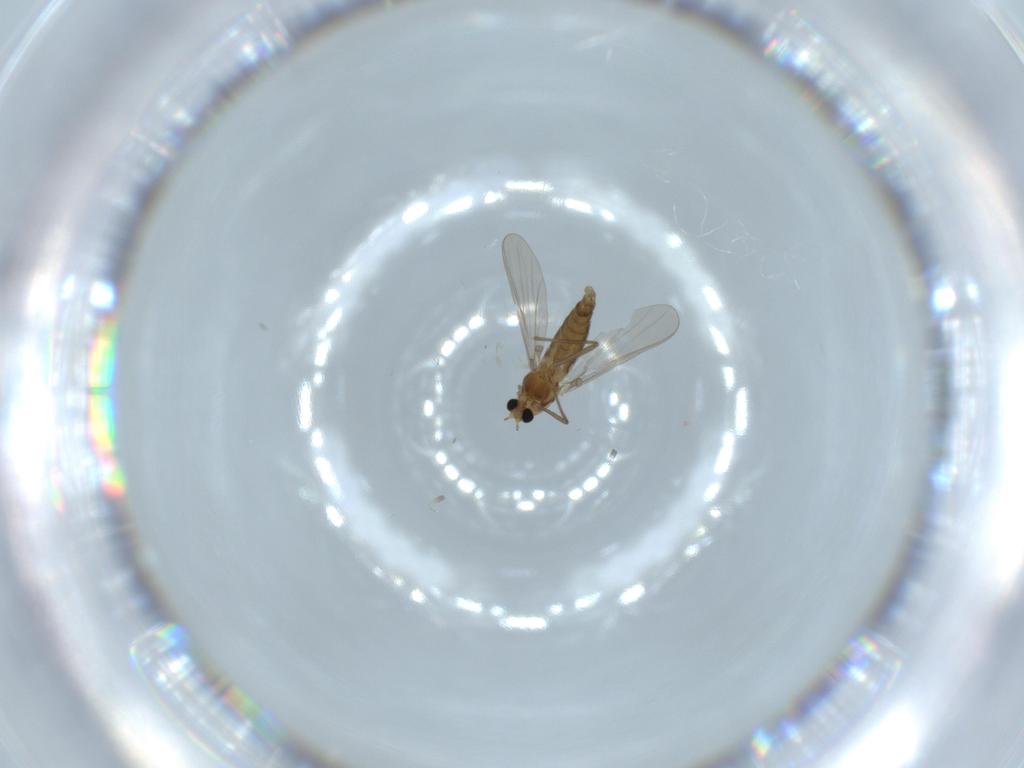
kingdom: Animalia
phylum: Arthropoda
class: Insecta
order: Diptera
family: Chironomidae
